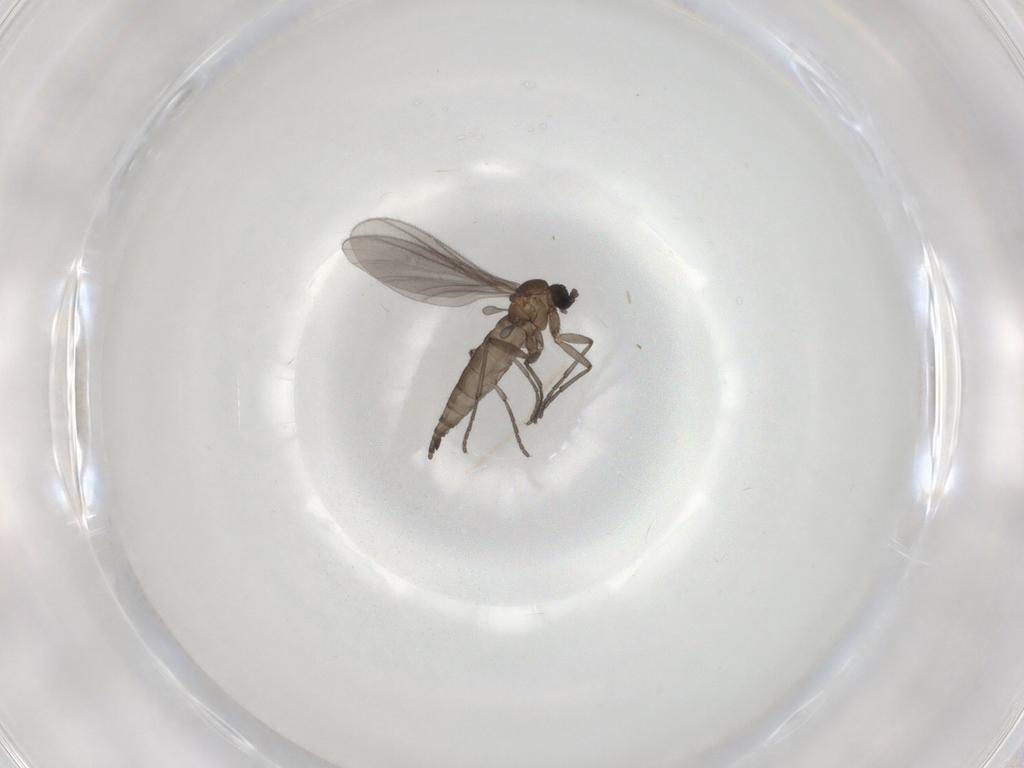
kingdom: Animalia
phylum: Arthropoda
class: Insecta
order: Diptera
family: Sciaridae
